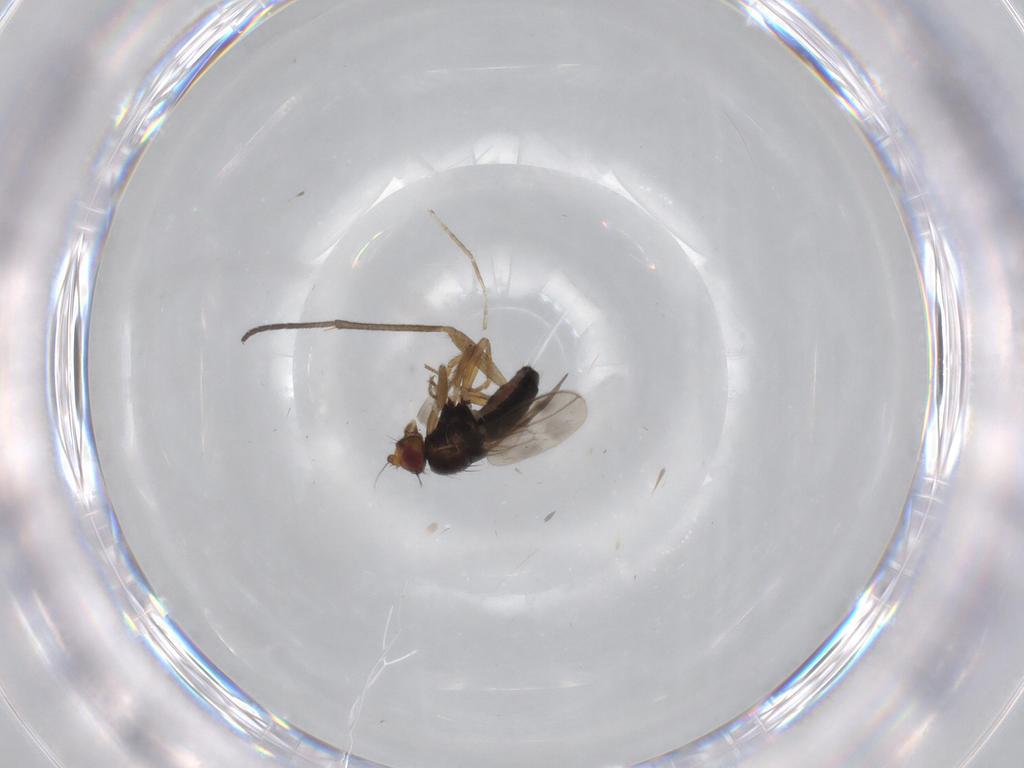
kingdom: Animalia
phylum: Arthropoda
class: Insecta
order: Diptera
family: Sphaeroceridae
